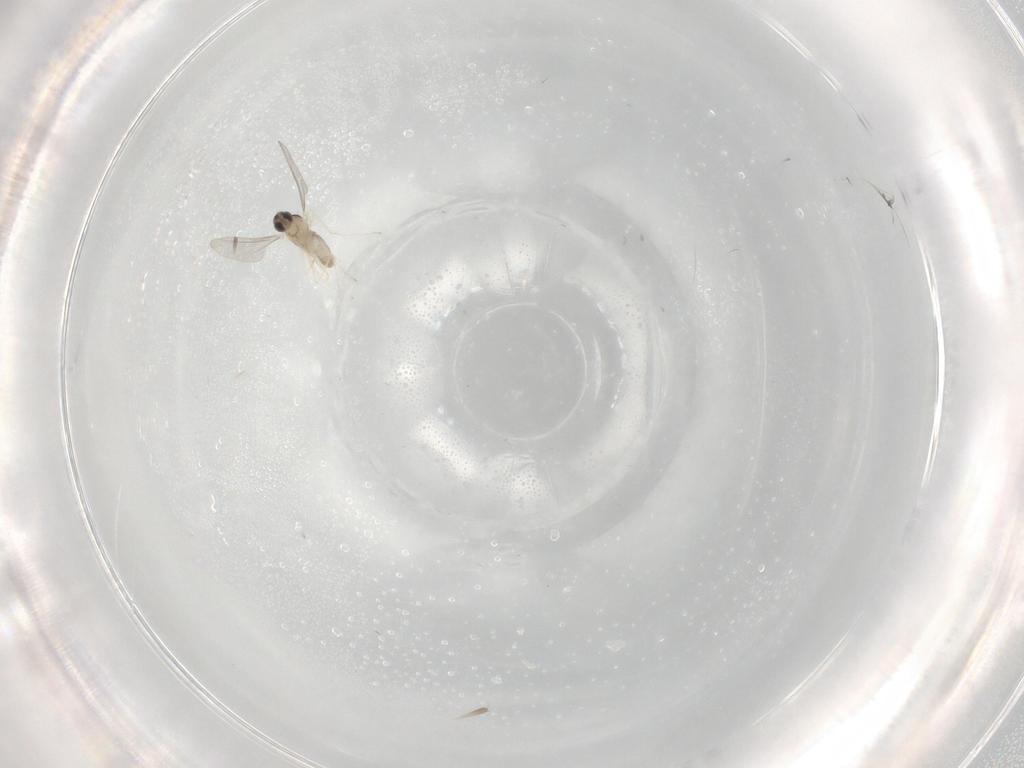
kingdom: Animalia
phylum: Arthropoda
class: Insecta
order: Diptera
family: Cecidomyiidae
